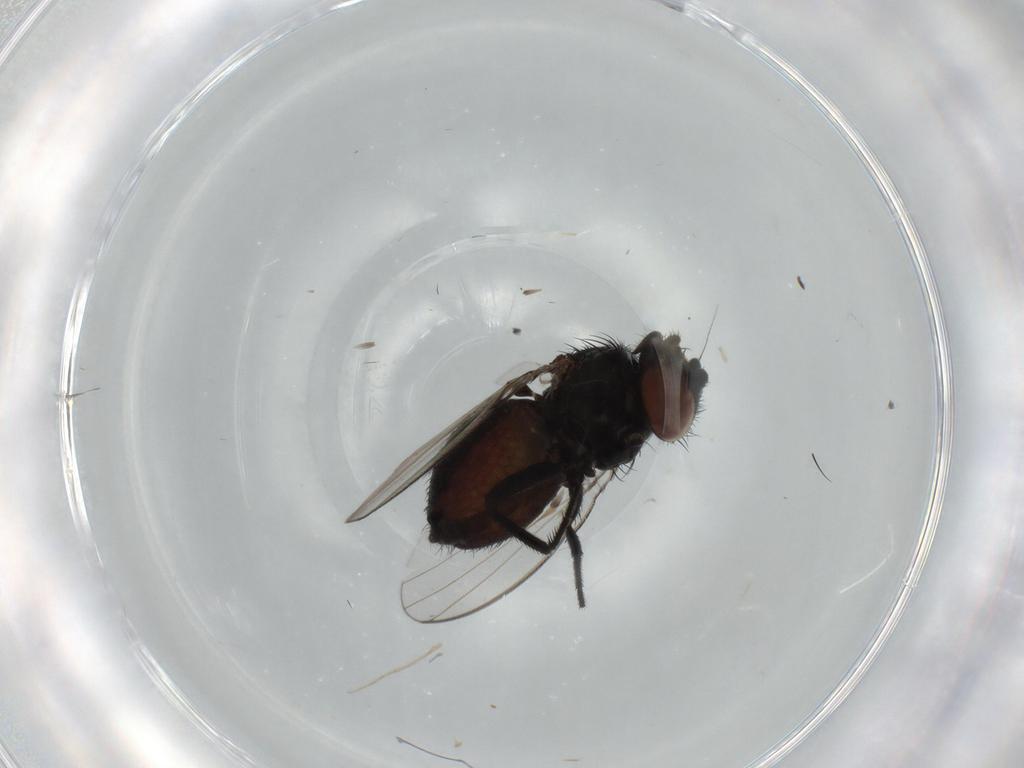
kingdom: Animalia
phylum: Arthropoda
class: Insecta
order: Diptera
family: Milichiidae
